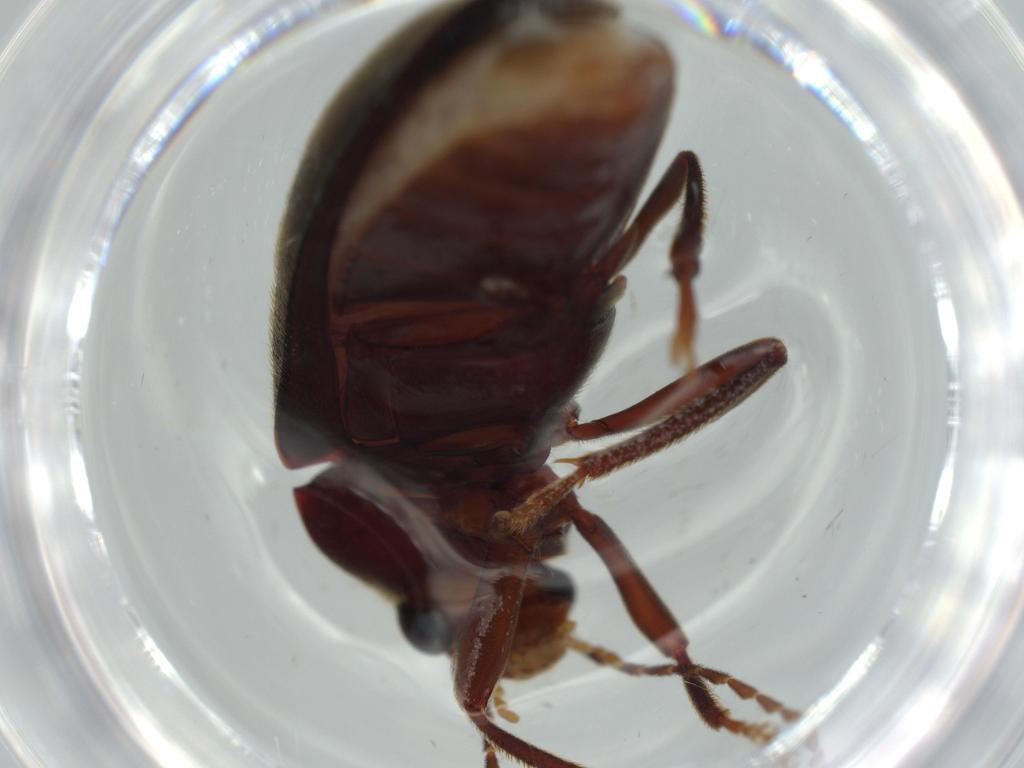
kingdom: Animalia
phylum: Arthropoda
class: Insecta
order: Coleoptera
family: Ptilodactylidae
